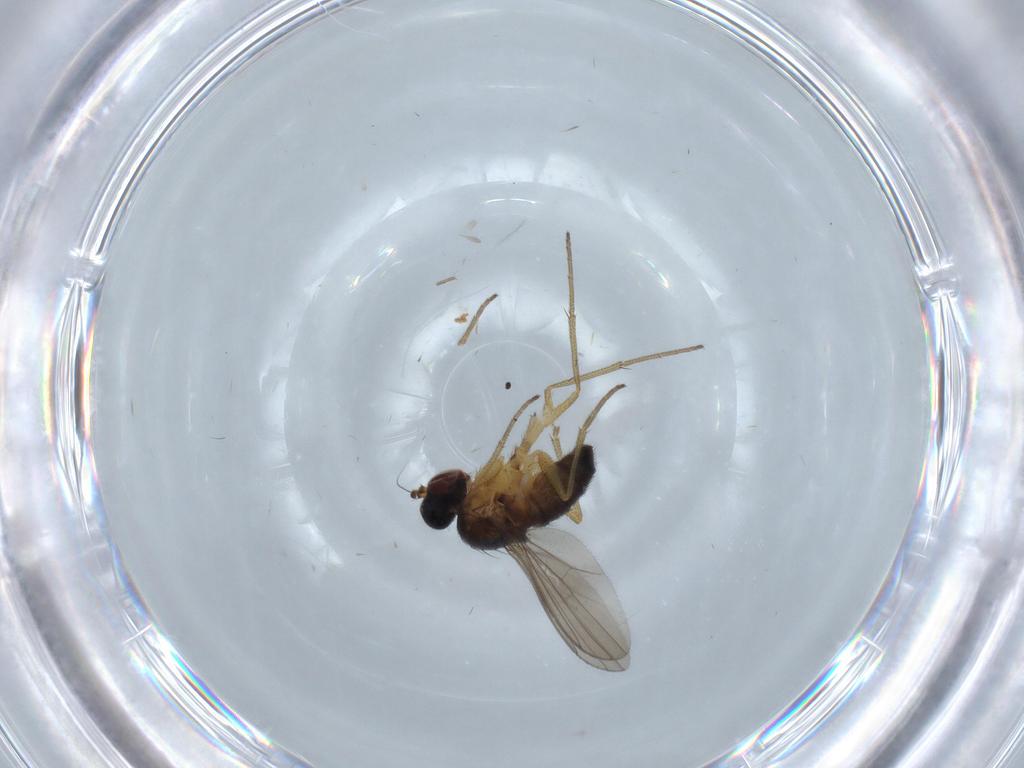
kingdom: Animalia
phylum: Arthropoda
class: Insecta
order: Diptera
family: Dolichopodidae
